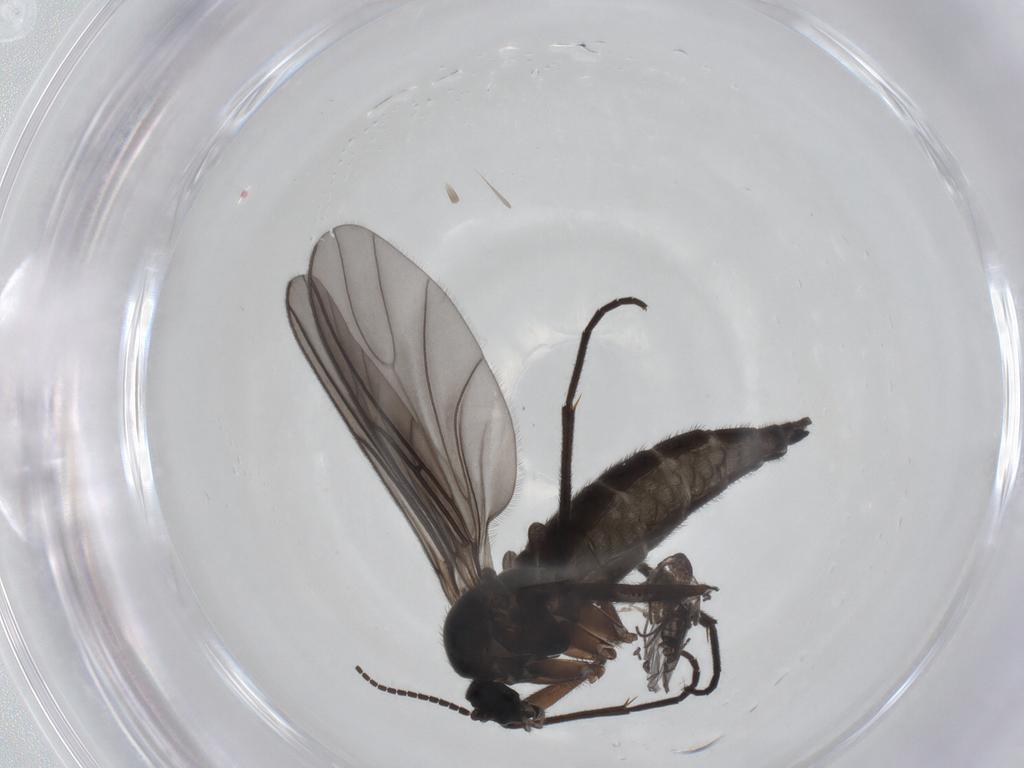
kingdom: Animalia
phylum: Arthropoda
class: Insecta
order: Diptera
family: Sciaridae
